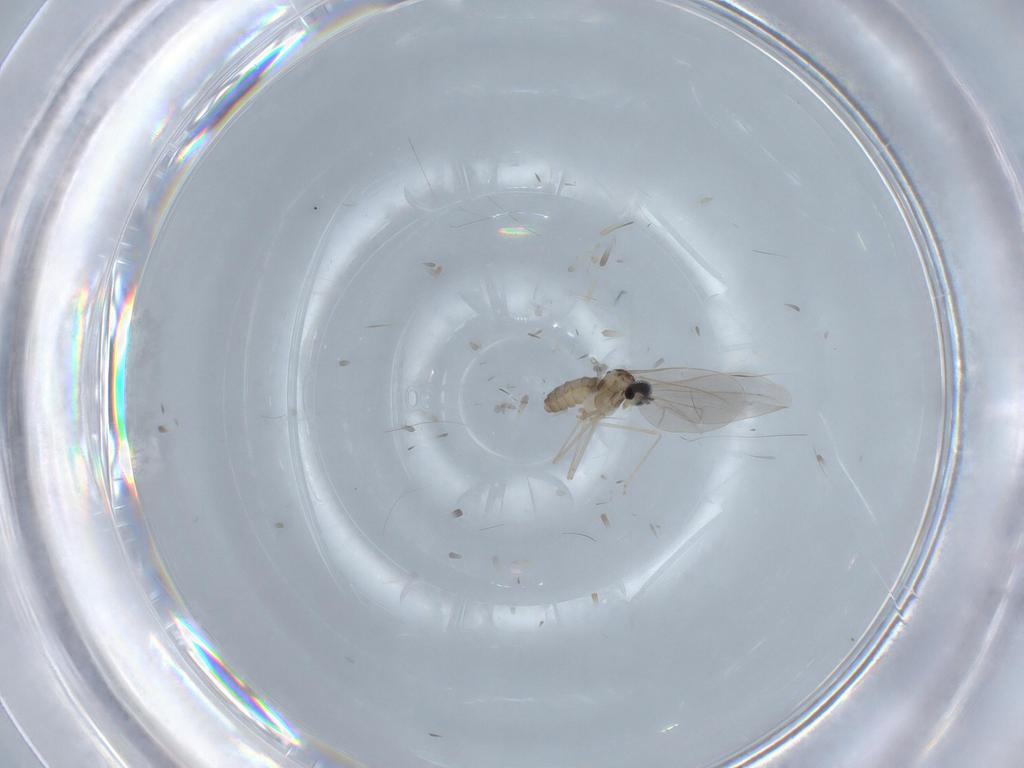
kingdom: Animalia
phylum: Arthropoda
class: Insecta
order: Diptera
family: Cecidomyiidae
